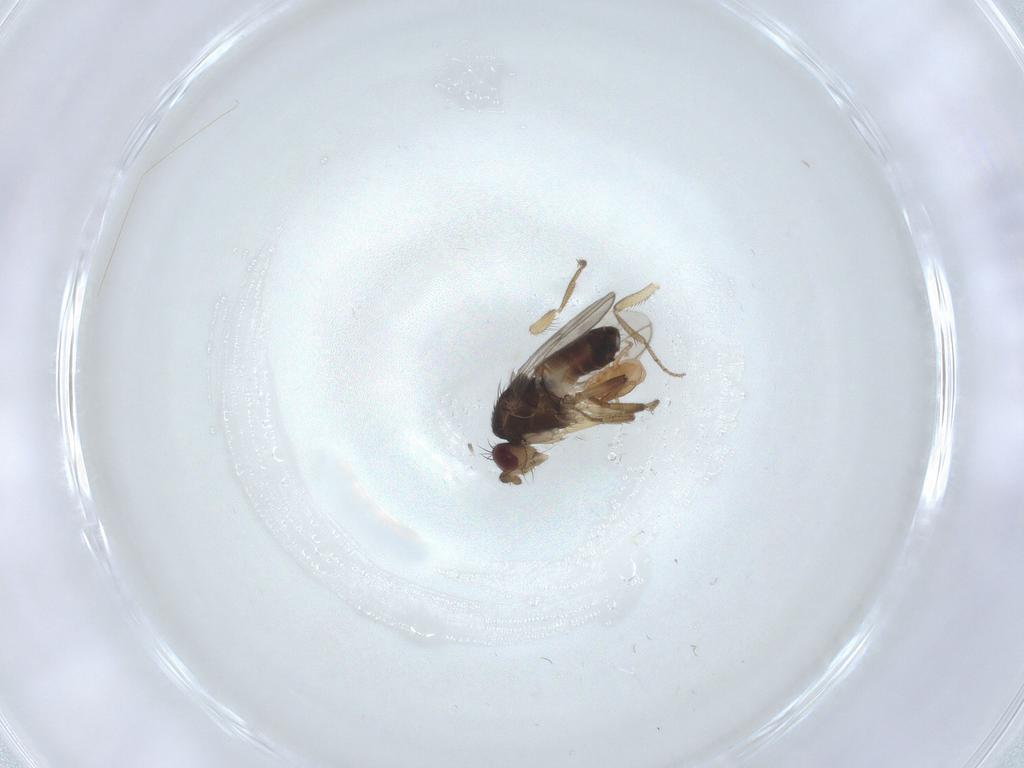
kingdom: Animalia
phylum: Arthropoda
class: Insecta
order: Diptera
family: Sphaeroceridae
